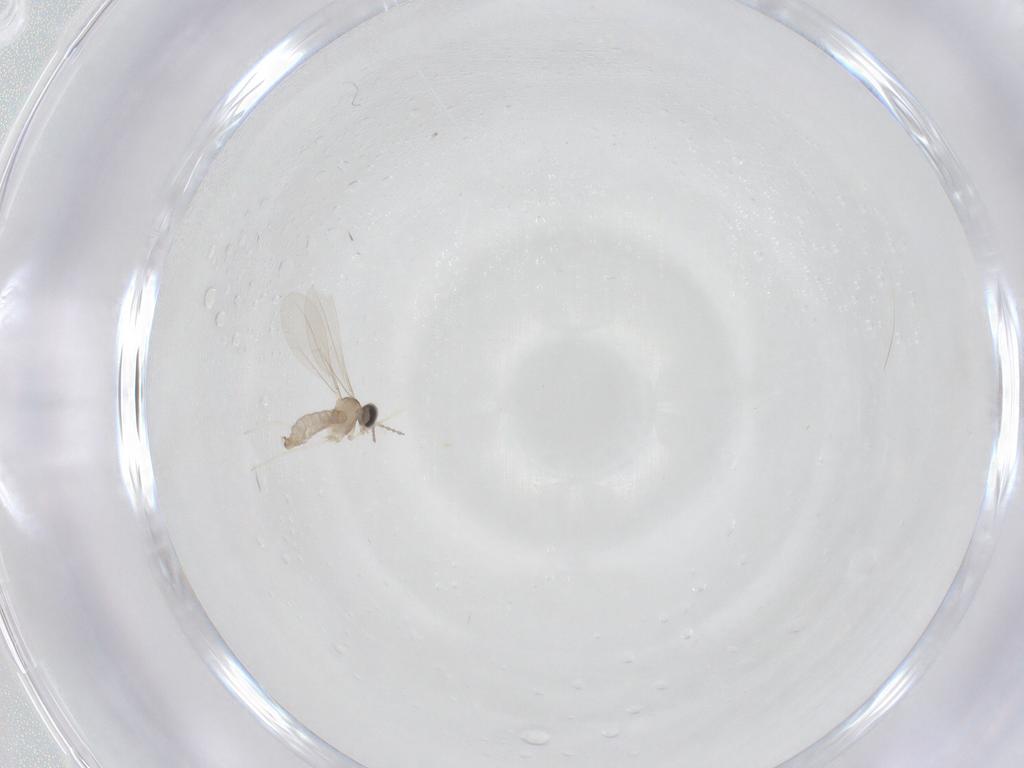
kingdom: Animalia
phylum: Arthropoda
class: Insecta
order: Diptera
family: Cecidomyiidae
